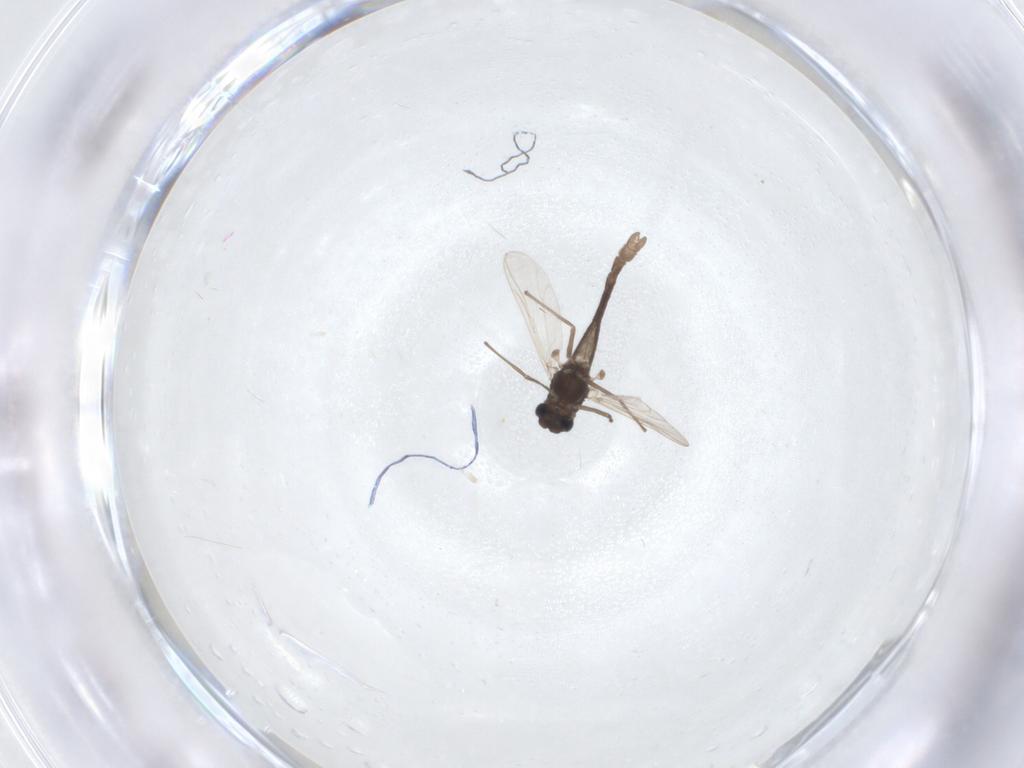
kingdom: Animalia
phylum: Arthropoda
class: Insecta
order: Diptera
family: Chironomidae
